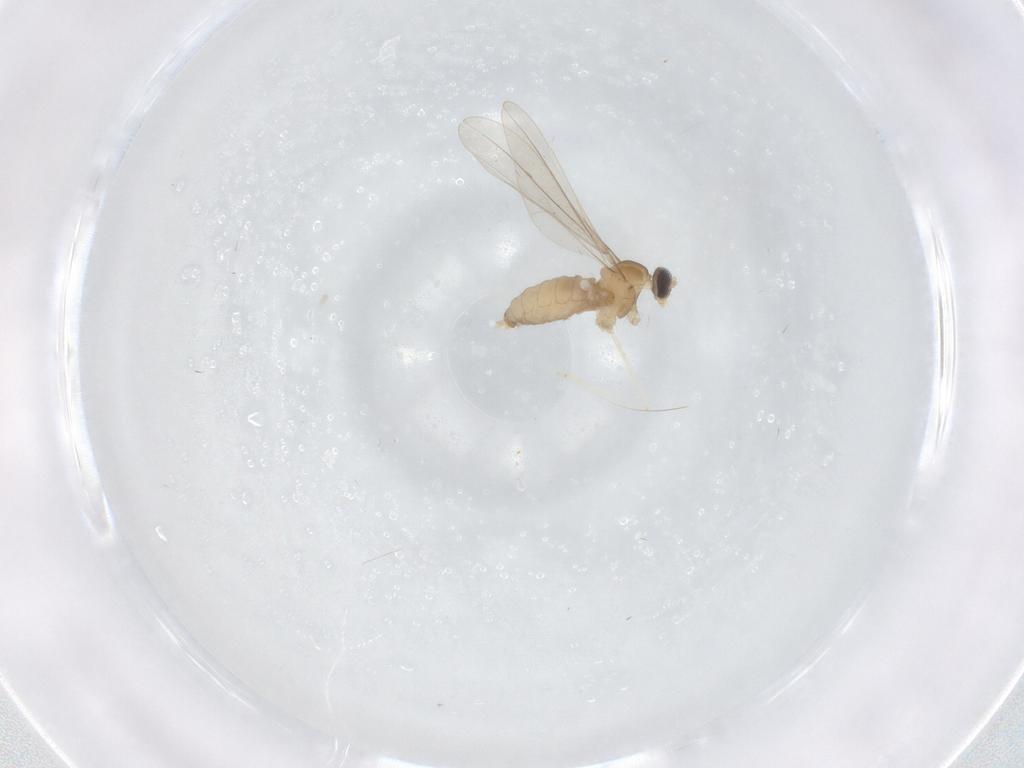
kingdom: Animalia
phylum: Arthropoda
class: Insecta
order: Diptera
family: Cecidomyiidae
